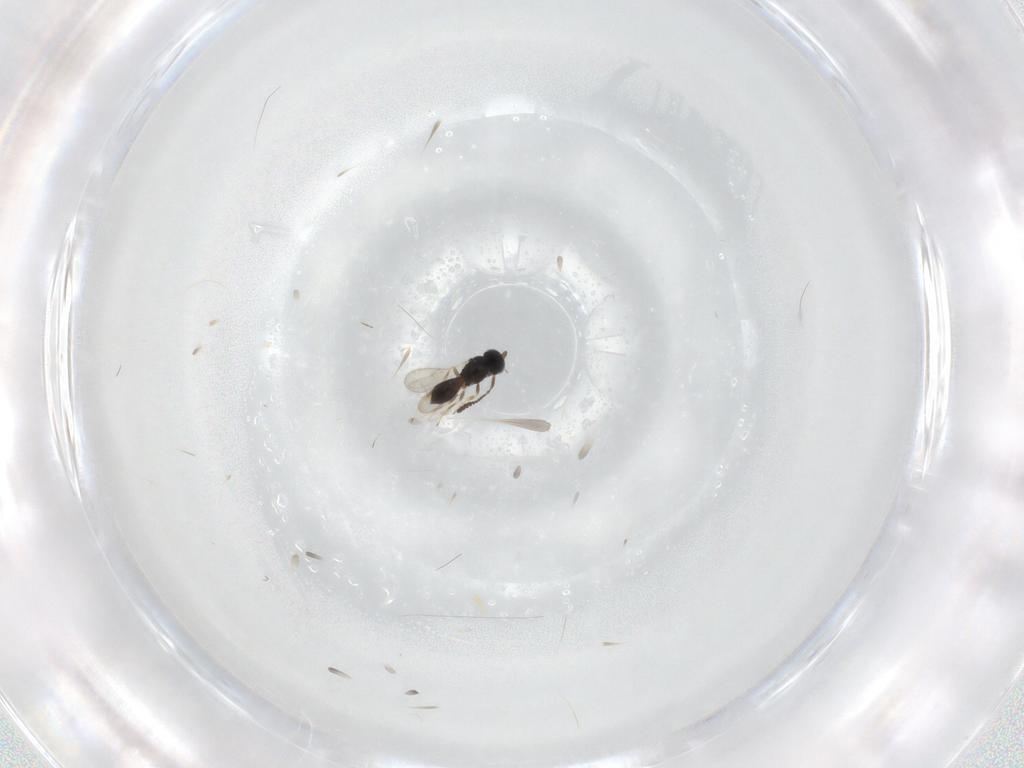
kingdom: Animalia
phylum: Arthropoda
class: Insecta
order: Hymenoptera
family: Scelionidae
